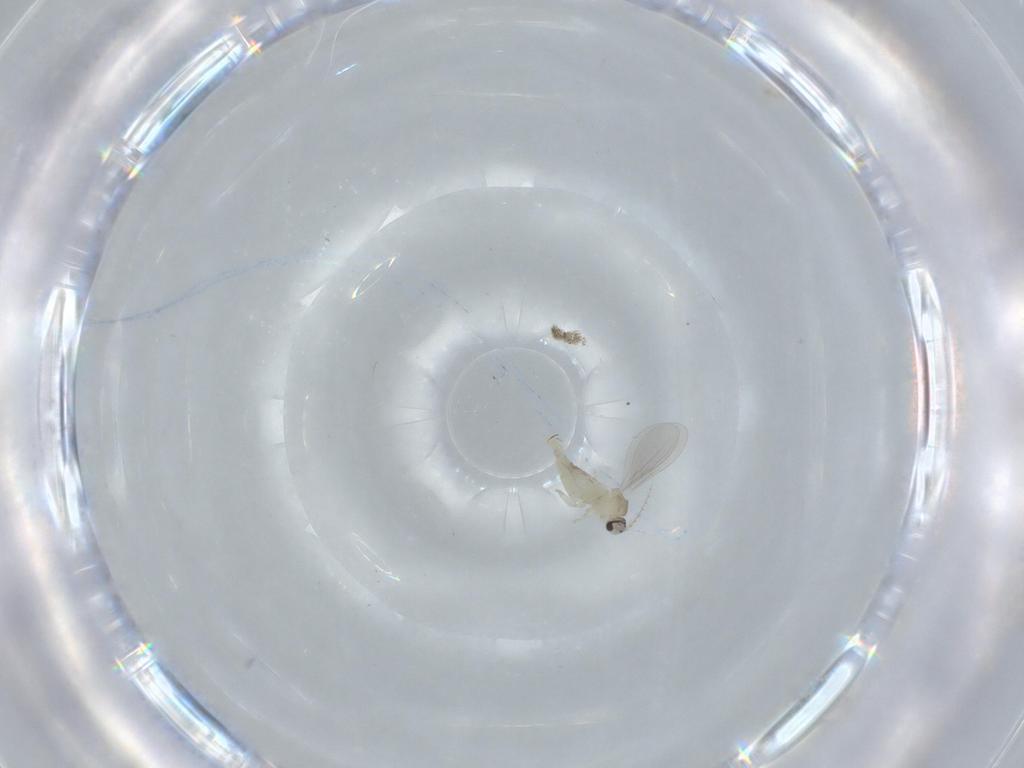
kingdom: Animalia
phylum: Arthropoda
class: Insecta
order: Diptera
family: Cecidomyiidae
